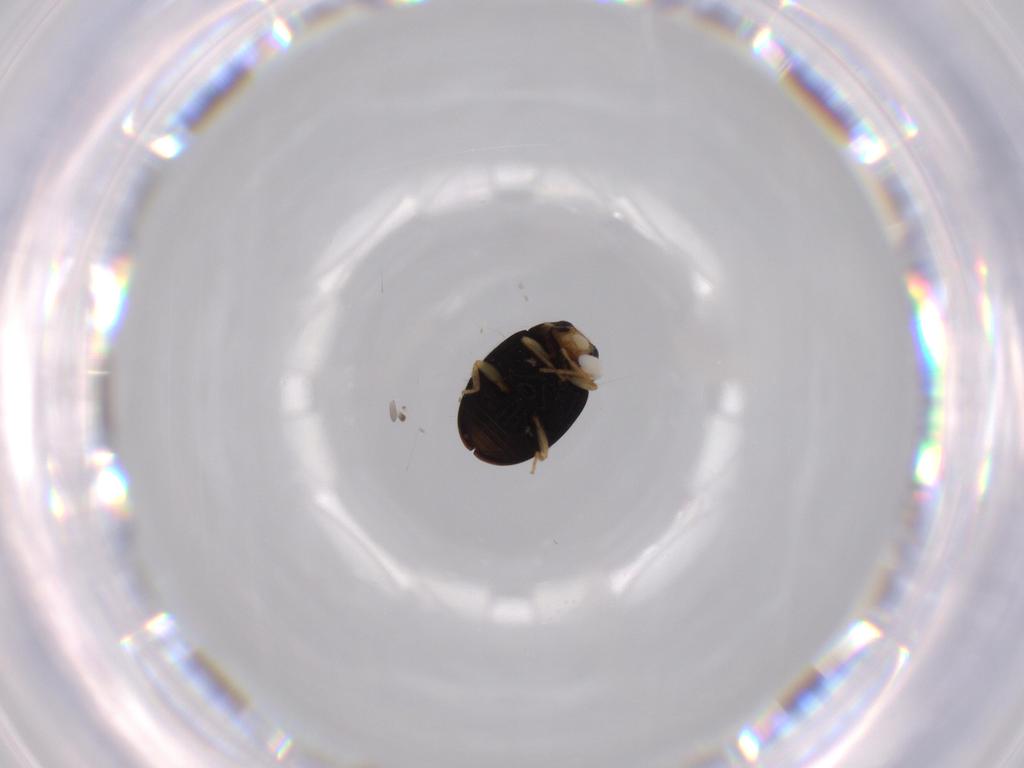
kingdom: Animalia
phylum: Arthropoda
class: Insecta
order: Coleoptera
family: Coccinellidae
